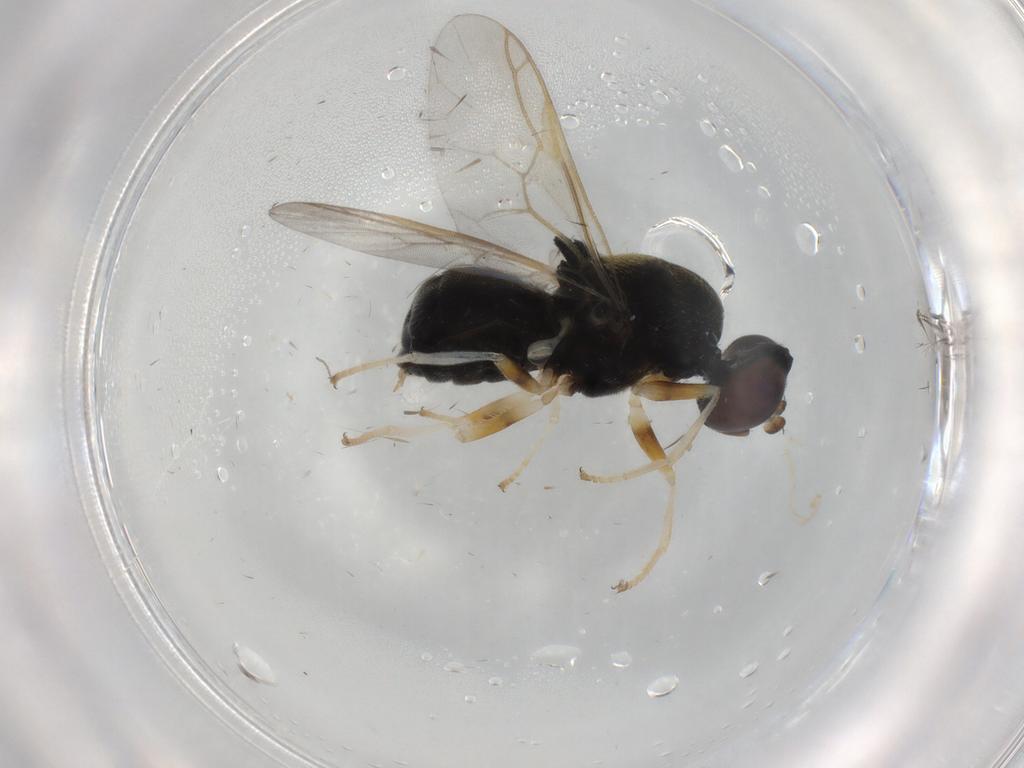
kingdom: Animalia
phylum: Arthropoda
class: Insecta
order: Diptera
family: Stratiomyidae
